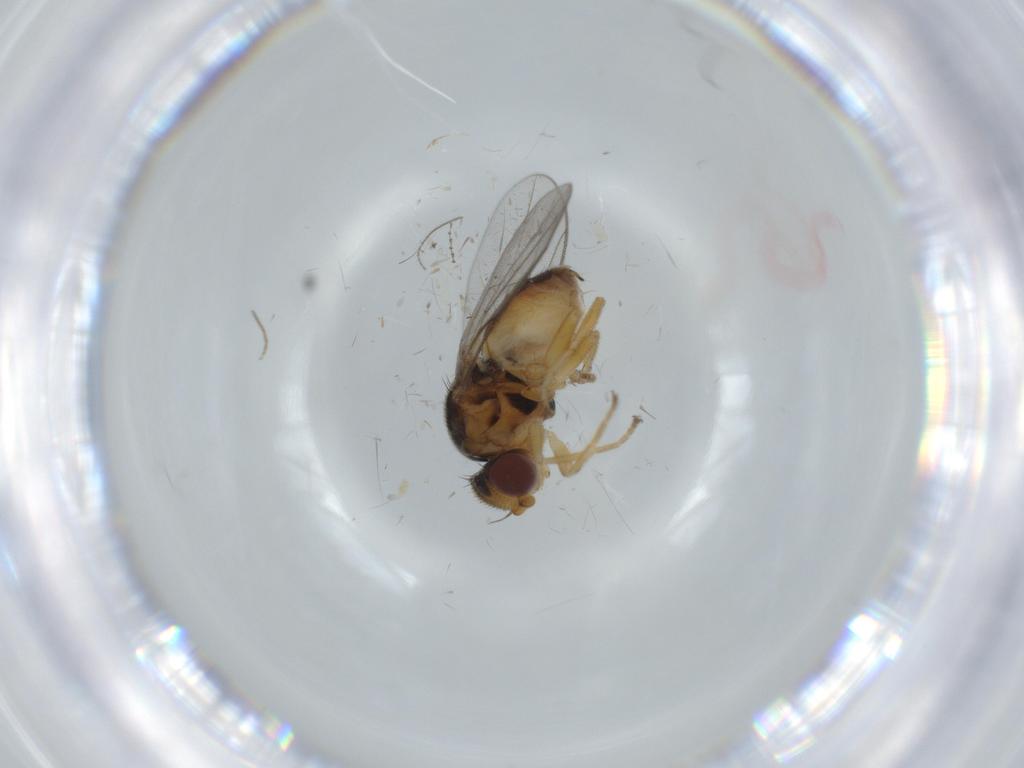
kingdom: Animalia
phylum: Arthropoda
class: Insecta
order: Diptera
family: Chloropidae
